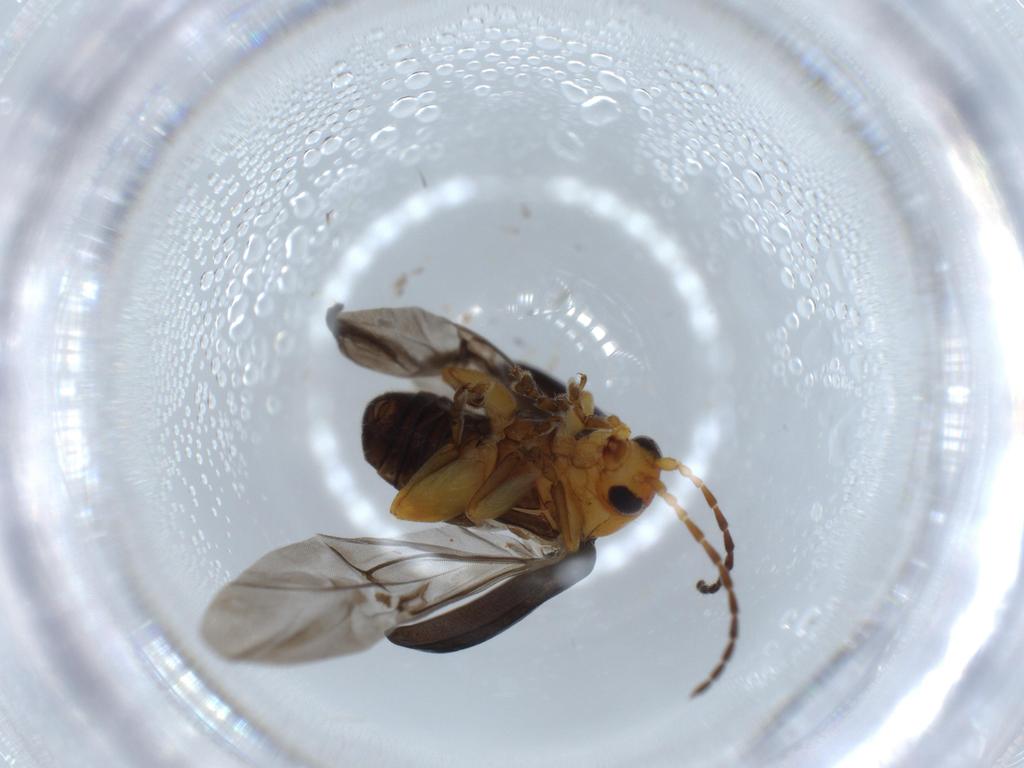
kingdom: Animalia
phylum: Arthropoda
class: Insecta
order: Coleoptera
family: Chrysomelidae
